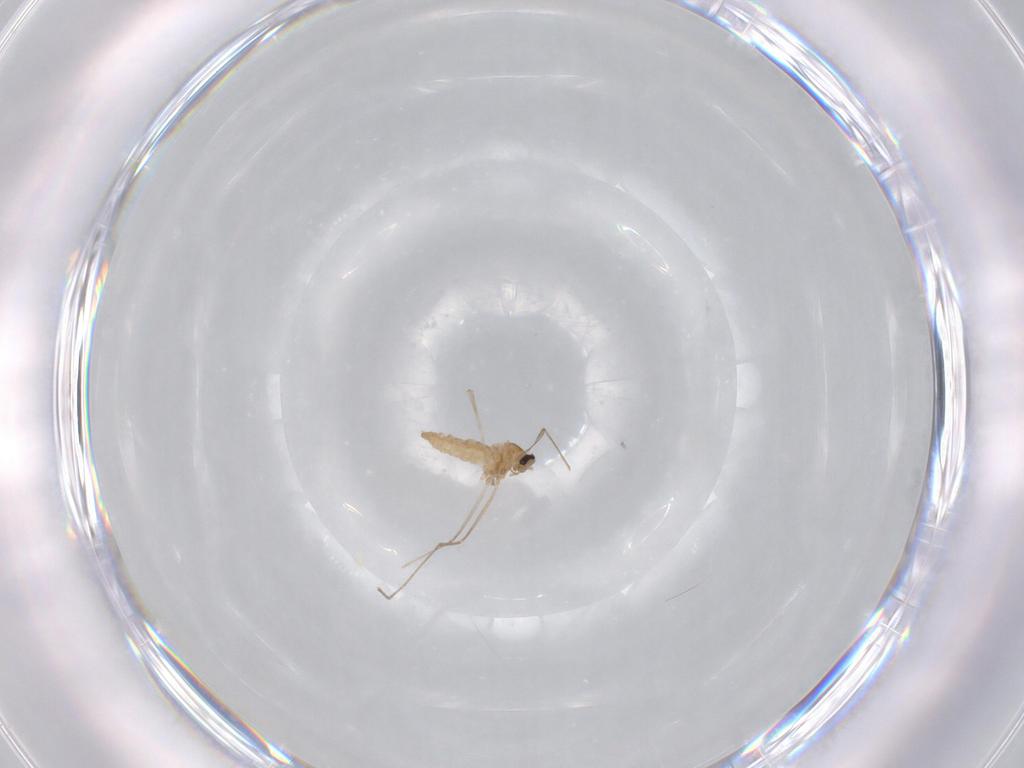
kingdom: Animalia
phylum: Arthropoda
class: Insecta
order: Diptera
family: Cecidomyiidae
